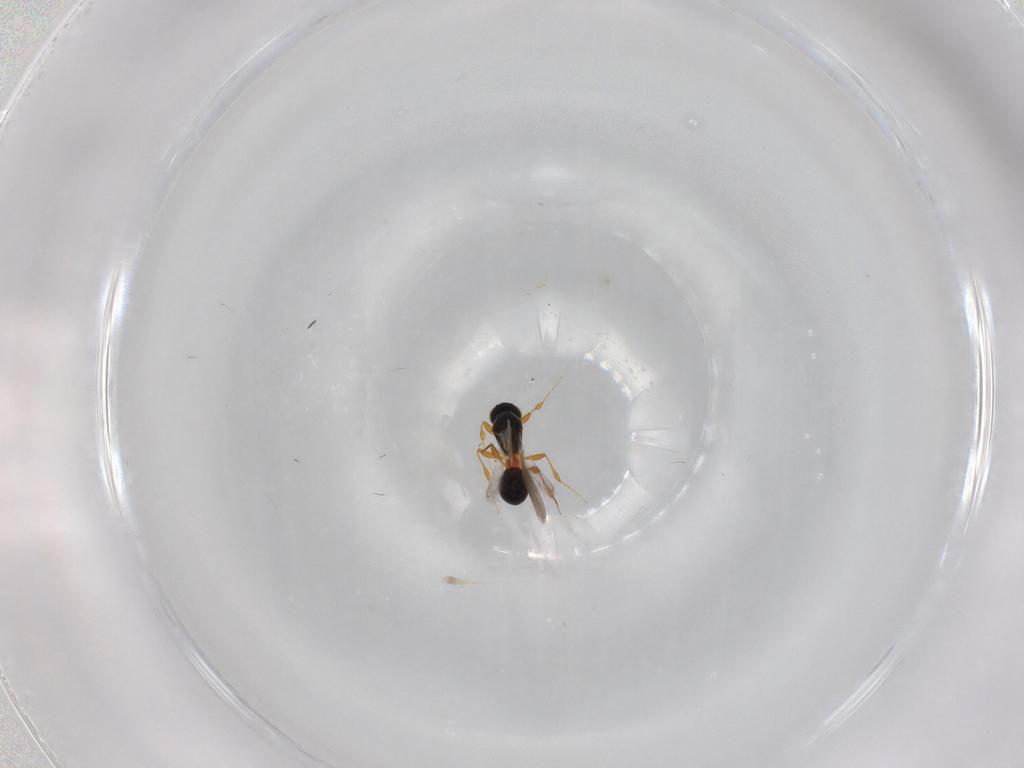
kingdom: Animalia
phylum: Arthropoda
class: Insecta
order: Hymenoptera
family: Platygastridae
